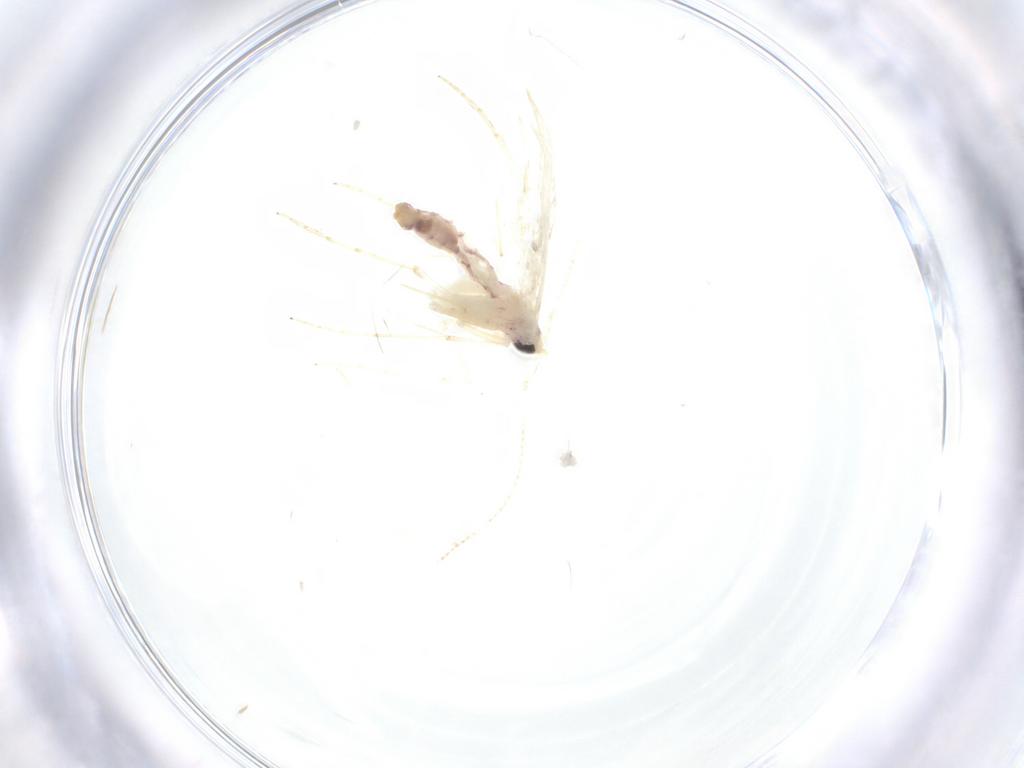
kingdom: Animalia
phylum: Arthropoda
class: Insecta
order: Lepidoptera
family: Tineidae
